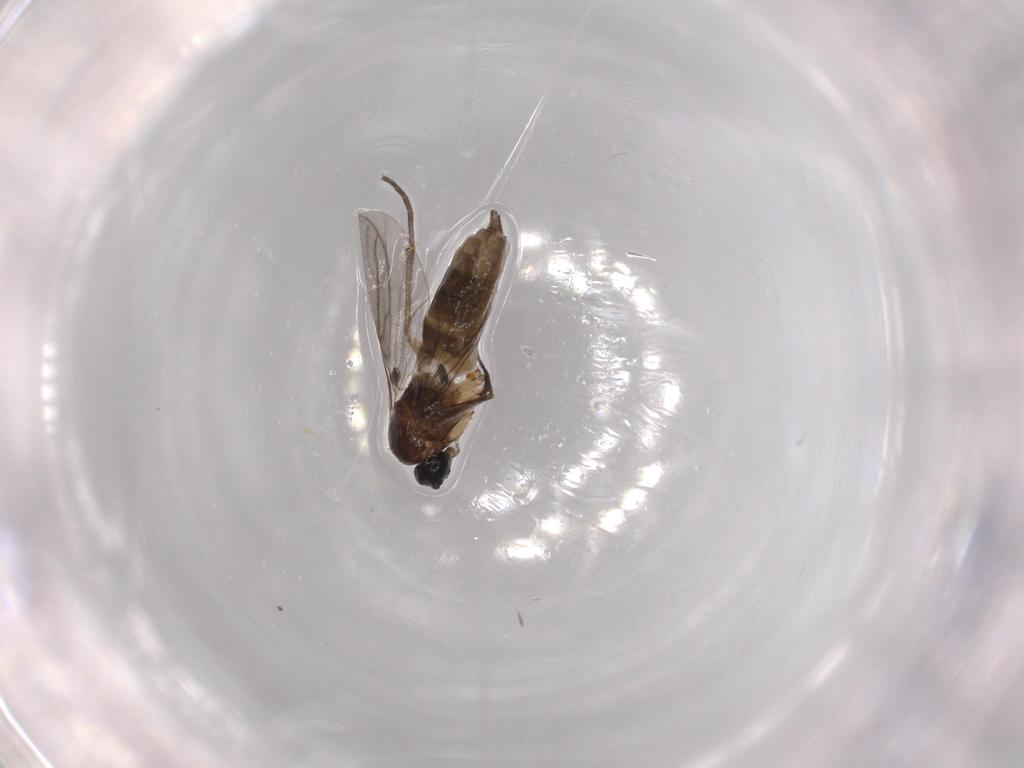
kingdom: Animalia
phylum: Arthropoda
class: Insecta
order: Diptera
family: Sciaridae
